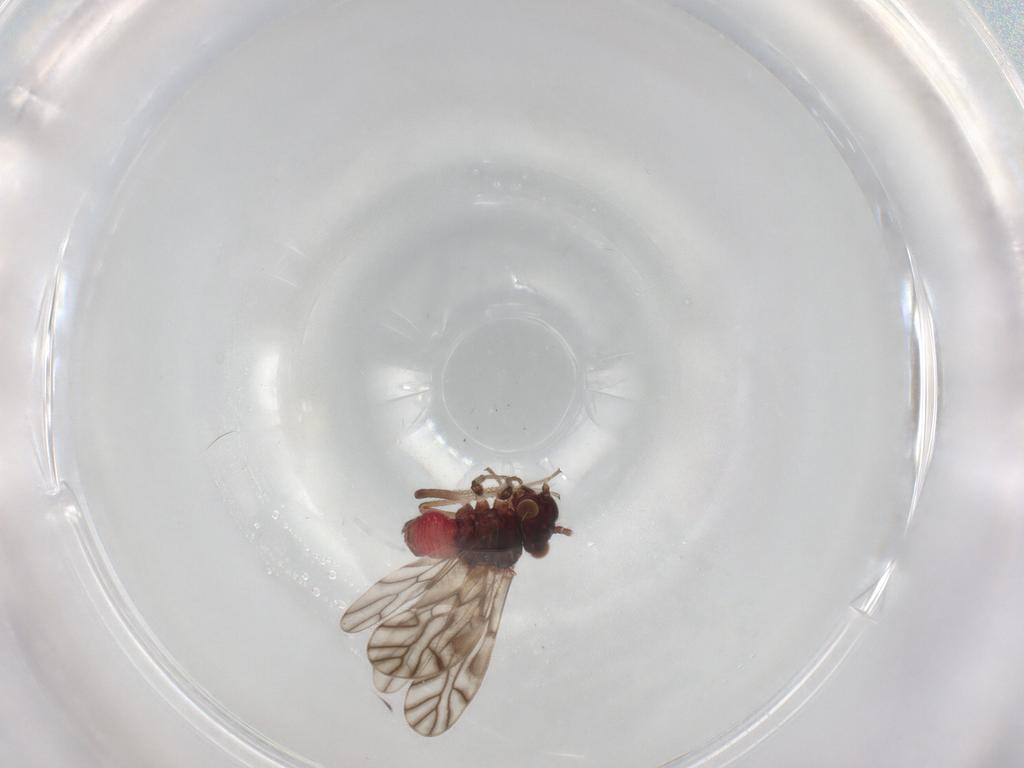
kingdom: Animalia
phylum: Arthropoda
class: Insecta
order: Psocodea
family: Amphipsocidae
